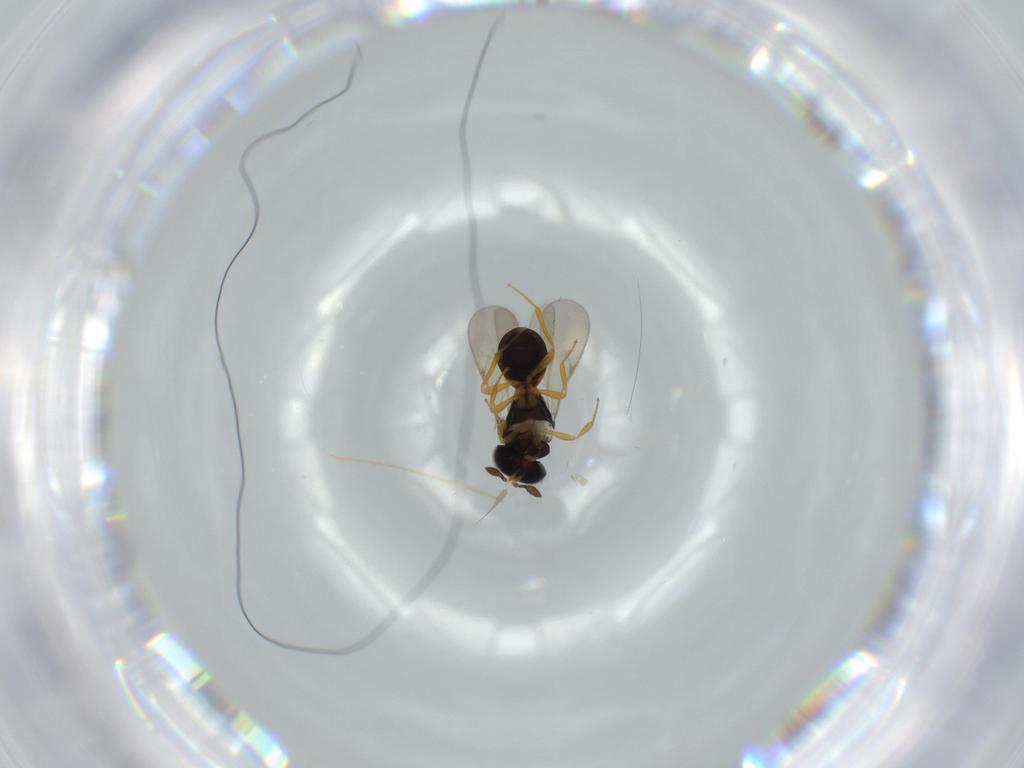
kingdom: Animalia
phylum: Arthropoda
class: Insecta
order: Hymenoptera
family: Scelionidae
